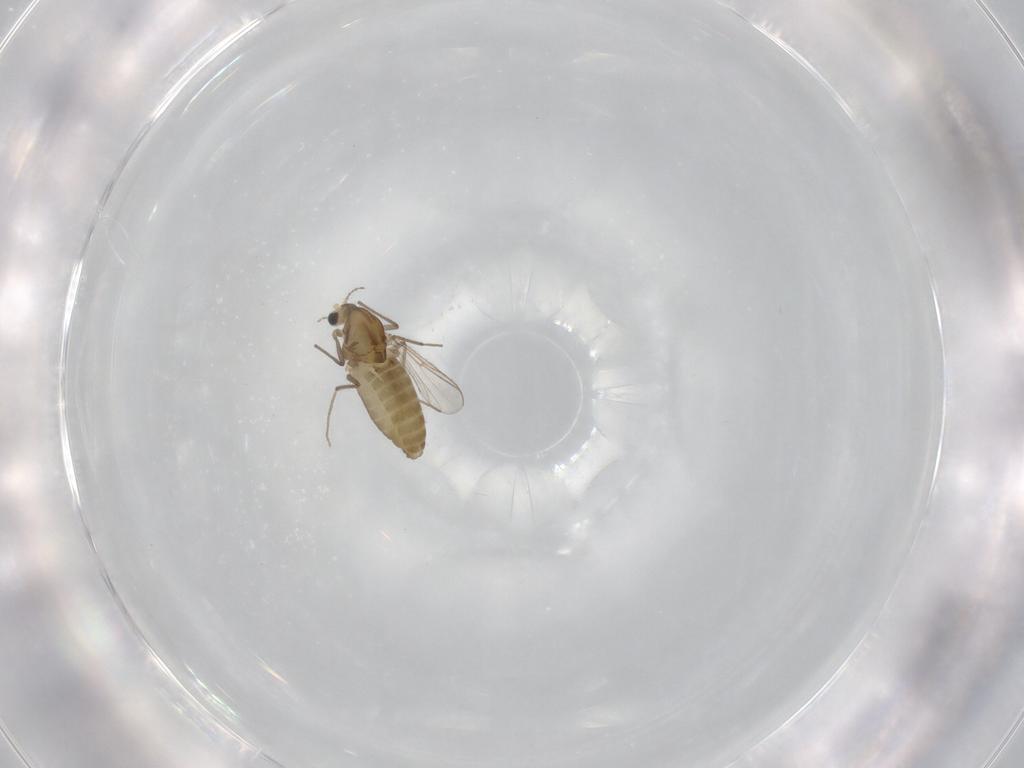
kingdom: Animalia
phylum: Arthropoda
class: Insecta
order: Diptera
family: Chironomidae
